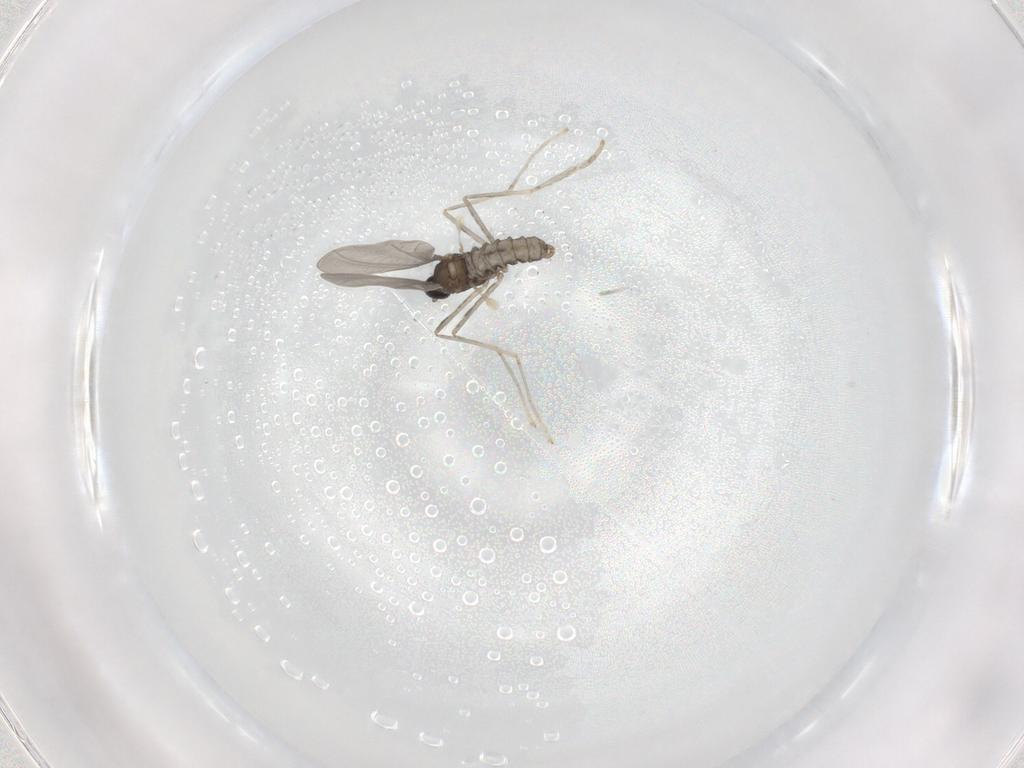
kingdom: Animalia
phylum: Arthropoda
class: Insecta
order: Diptera
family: Cecidomyiidae
